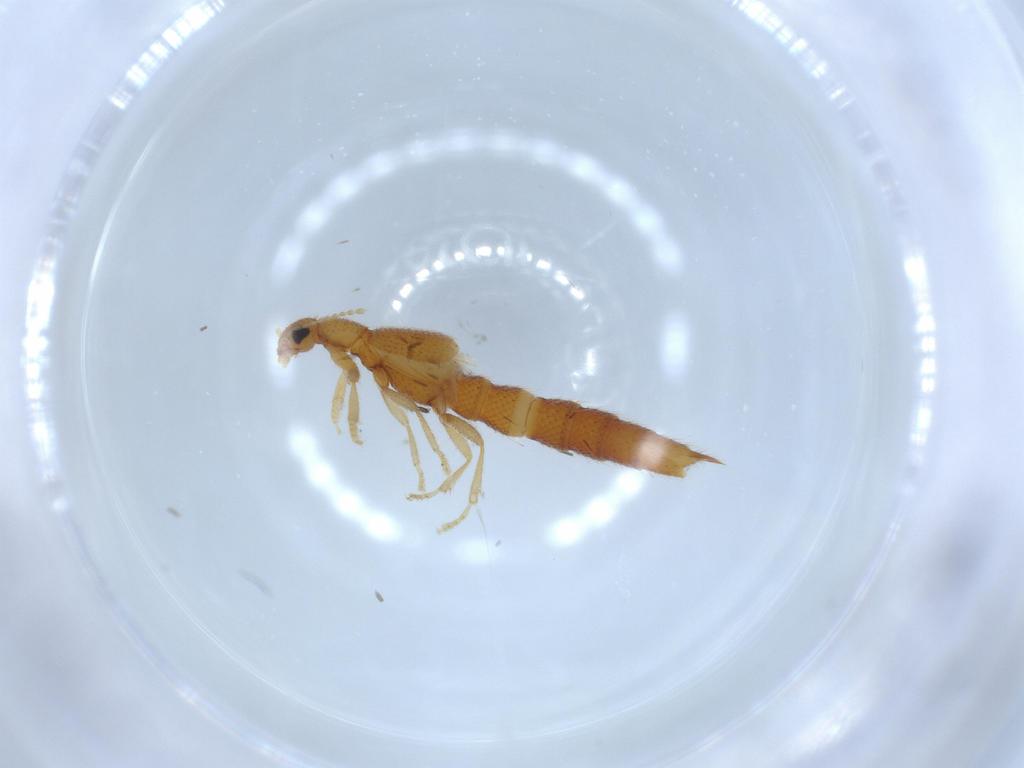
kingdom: Animalia
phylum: Arthropoda
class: Insecta
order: Coleoptera
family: Staphylinidae
